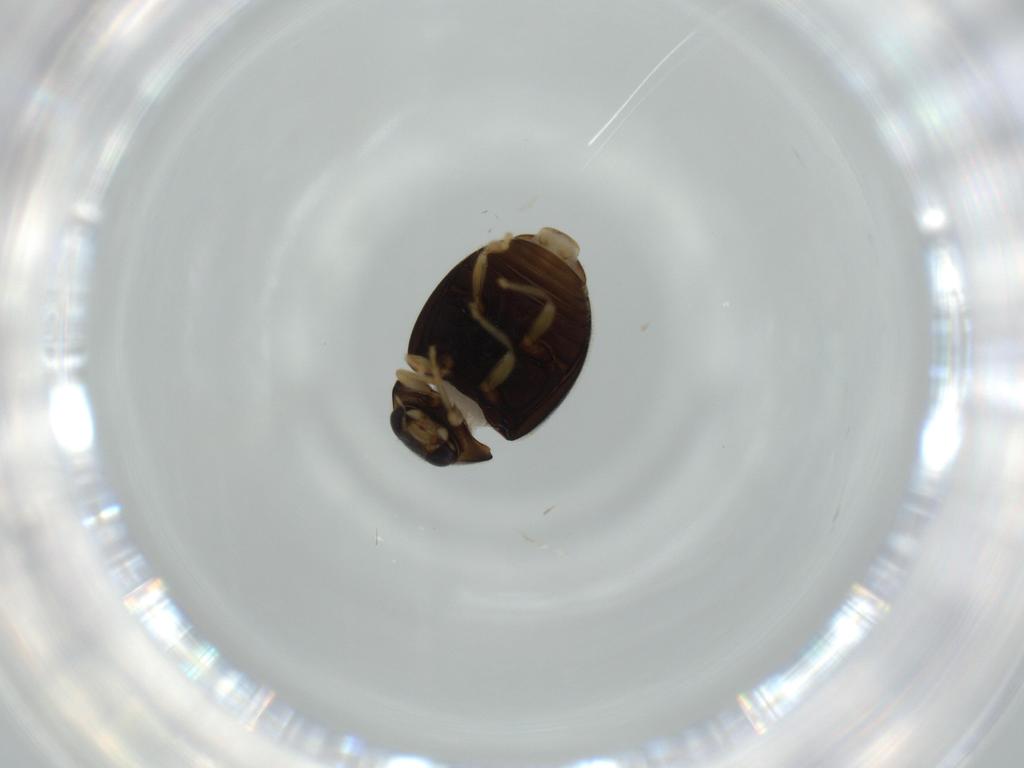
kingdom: Animalia
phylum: Arthropoda
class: Insecta
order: Coleoptera
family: Coccinellidae
